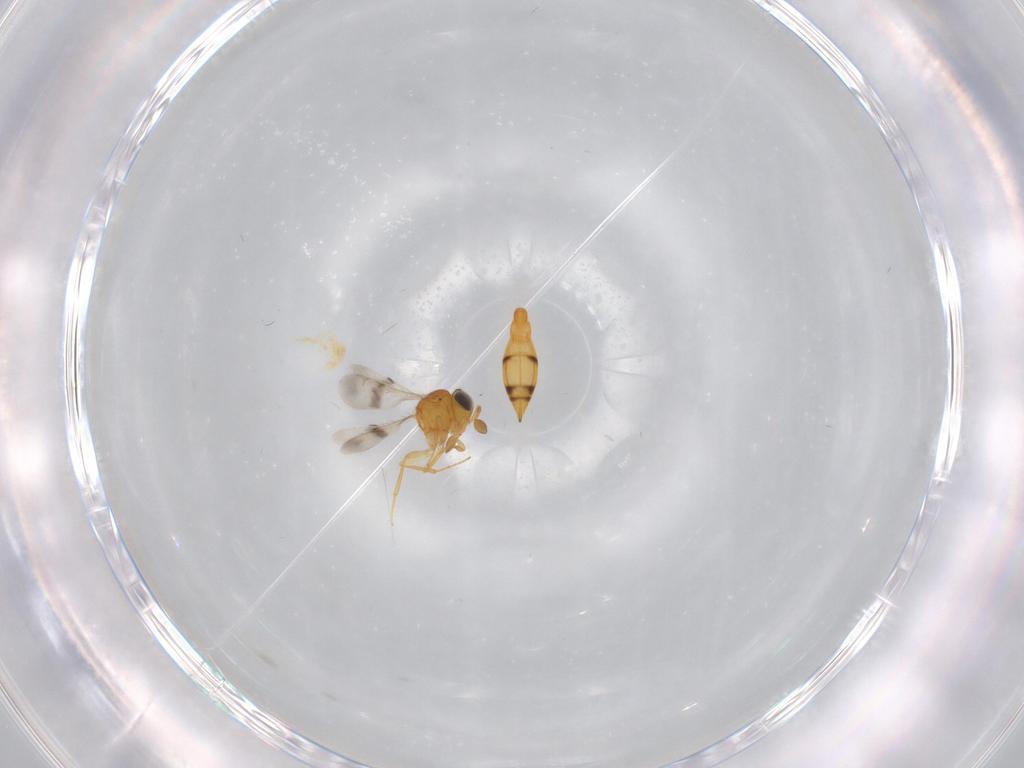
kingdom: Animalia
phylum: Arthropoda
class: Insecta
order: Hymenoptera
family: Scelionidae
